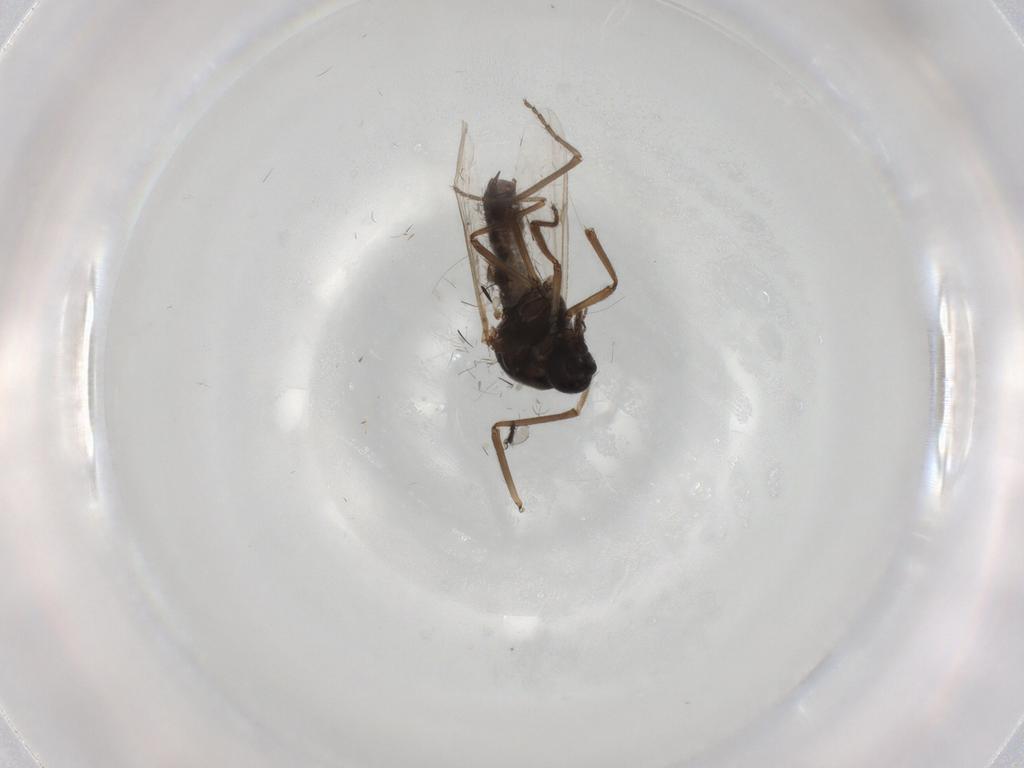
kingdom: Animalia
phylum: Arthropoda
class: Insecta
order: Diptera
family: Ceratopogonidae
